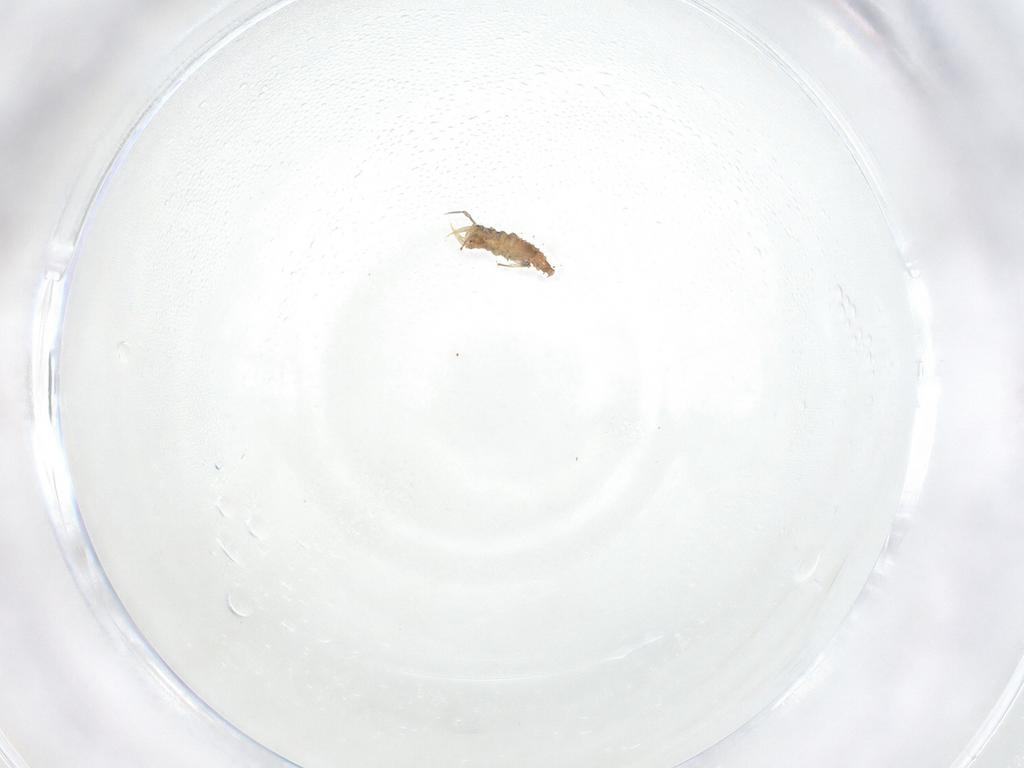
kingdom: Animalia
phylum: Arthropoda
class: Insecta
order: Neuroptera
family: Hemerobiidae
